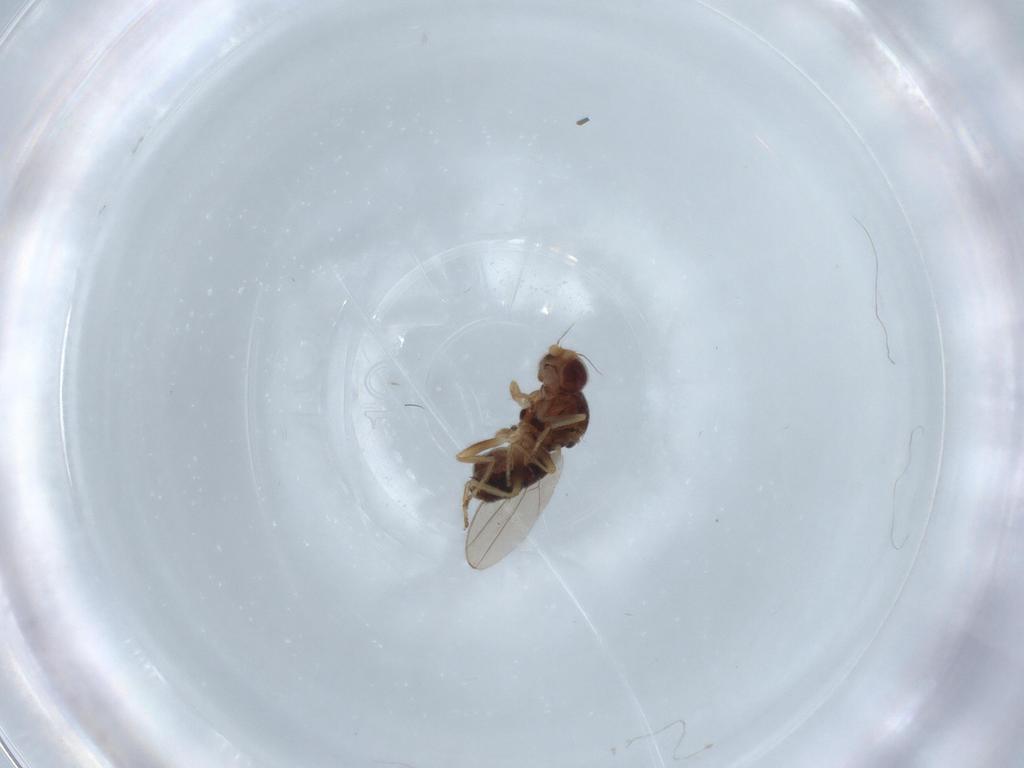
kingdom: Animalia
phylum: Arthropoda
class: Insecta
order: Diptera
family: Chloropidae
